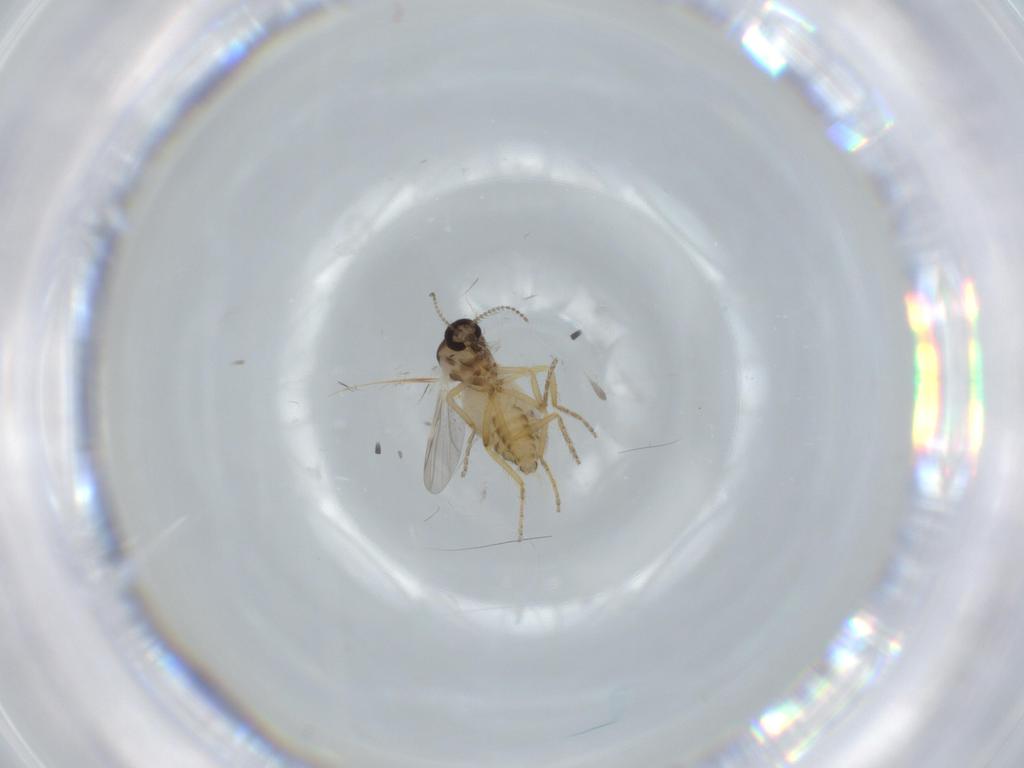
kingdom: Animalia
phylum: Arthropoda
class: Insecta
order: Diptera
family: Ceratopogonidae
